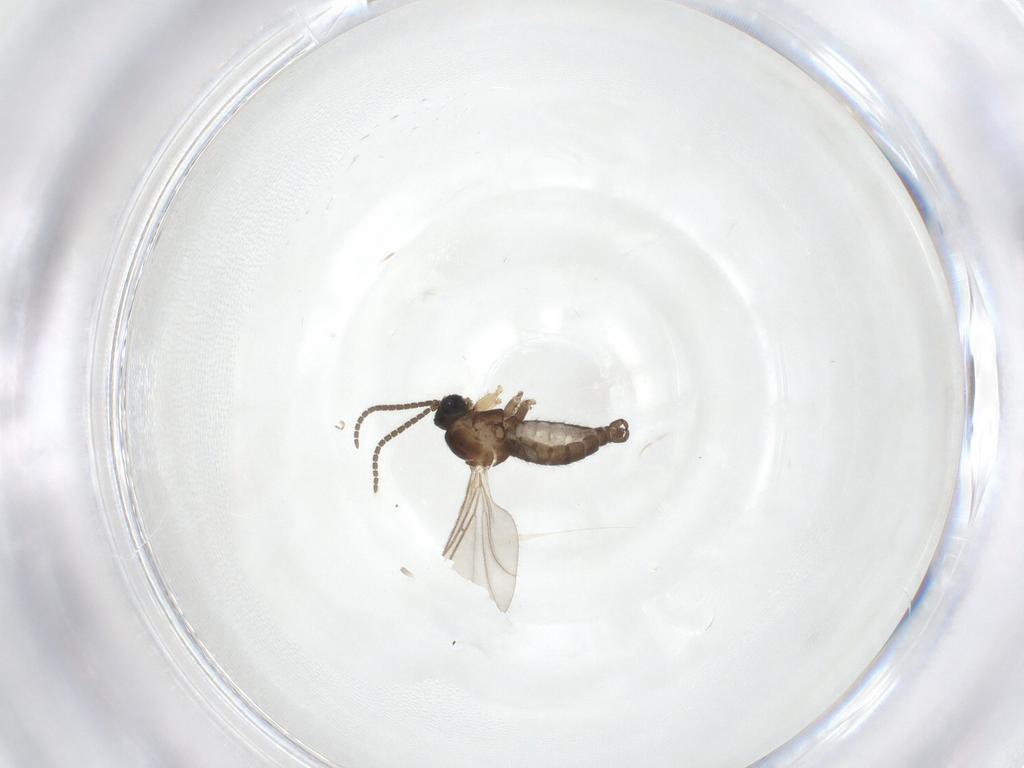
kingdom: Animalia
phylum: Arthropoda
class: Insecta
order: Diptera
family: Sciaridae
